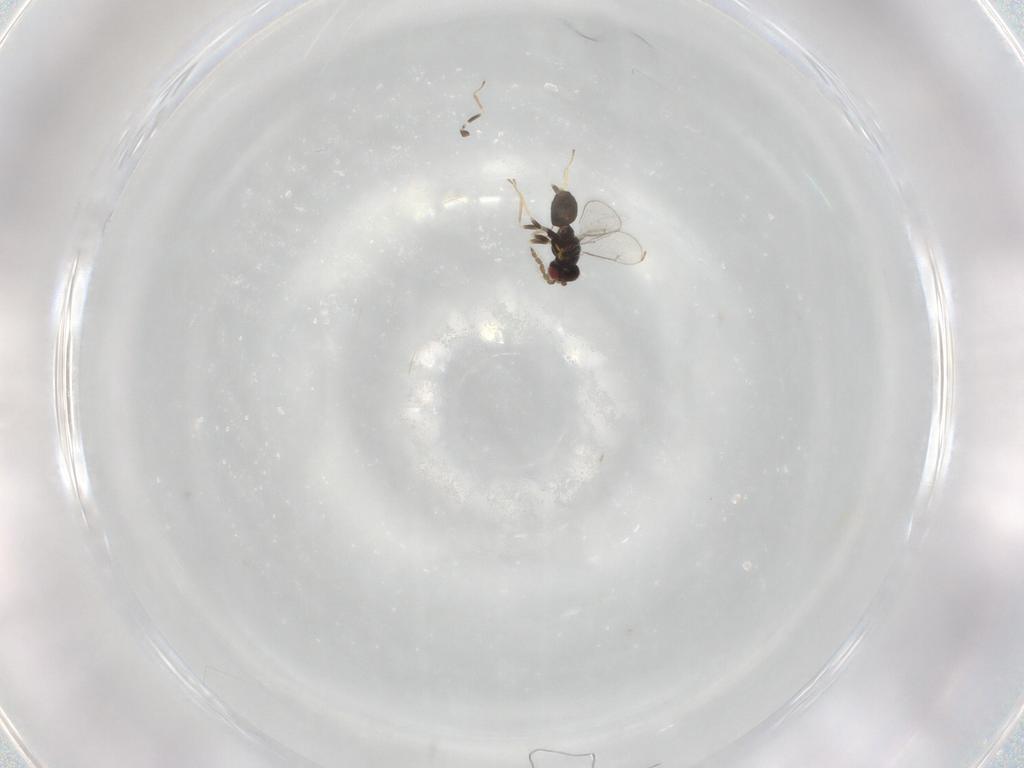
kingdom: Animalia
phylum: Arthropoda
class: Insecta
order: Hymenoptera
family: Eulophidae
